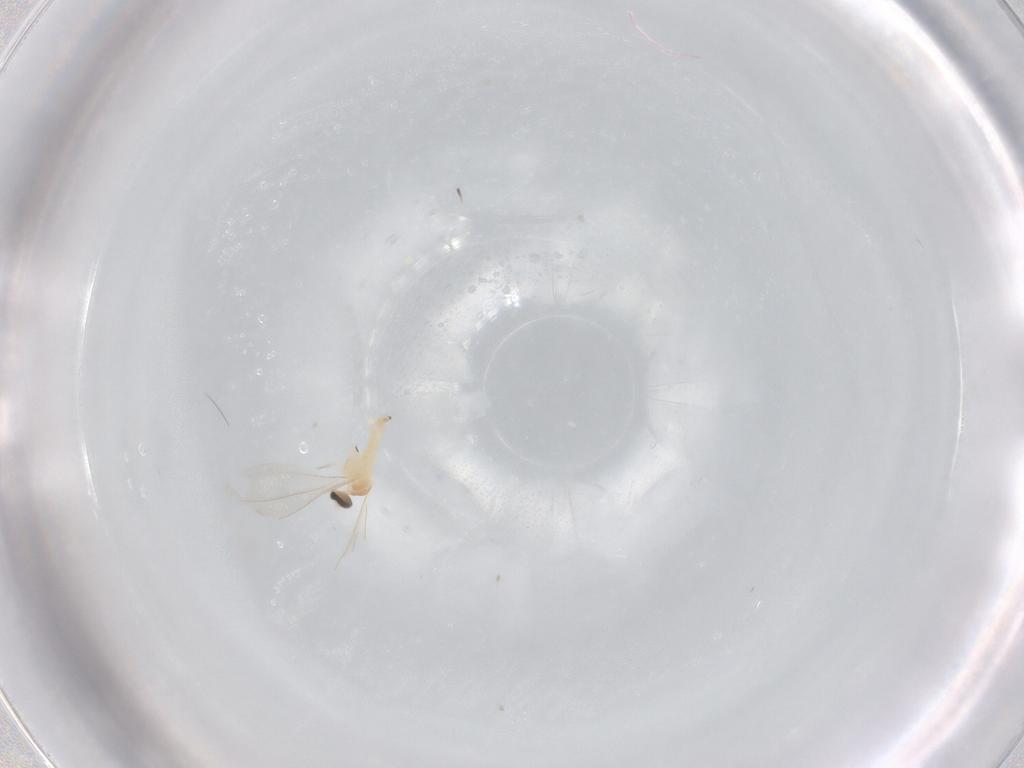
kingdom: Animalia
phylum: Arthropoda
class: Insecta
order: Diptera
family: Cecidomyiidae
